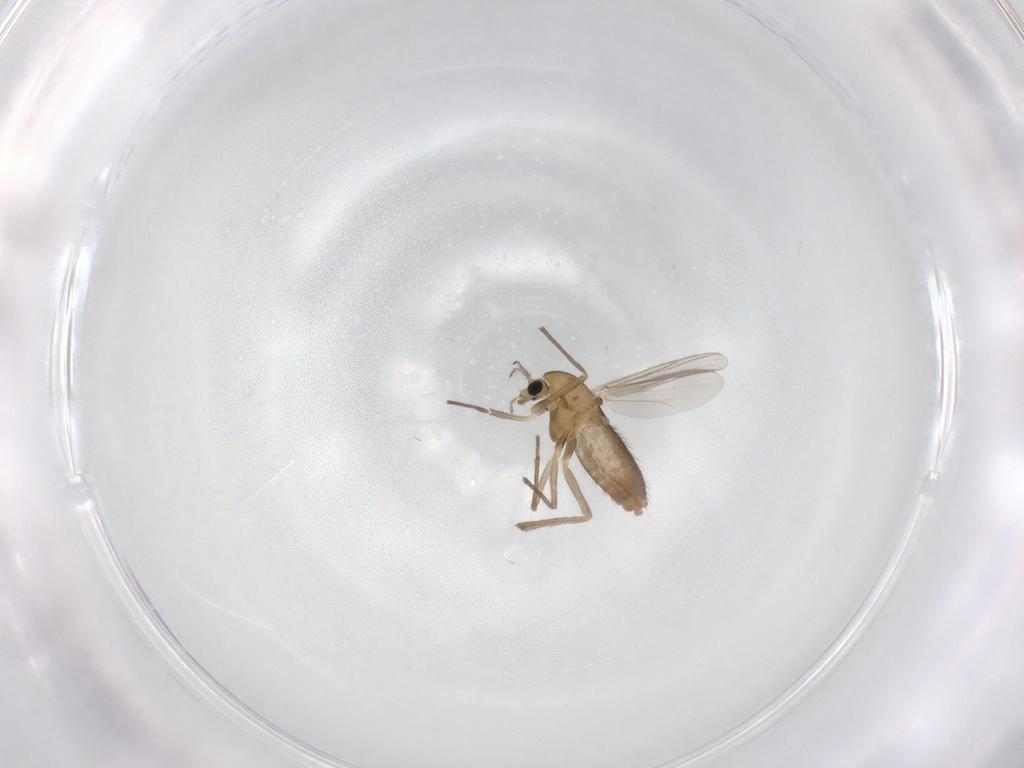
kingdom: Animalia
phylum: Arthropoda
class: Insecta
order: Diptera
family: Chironomidae
